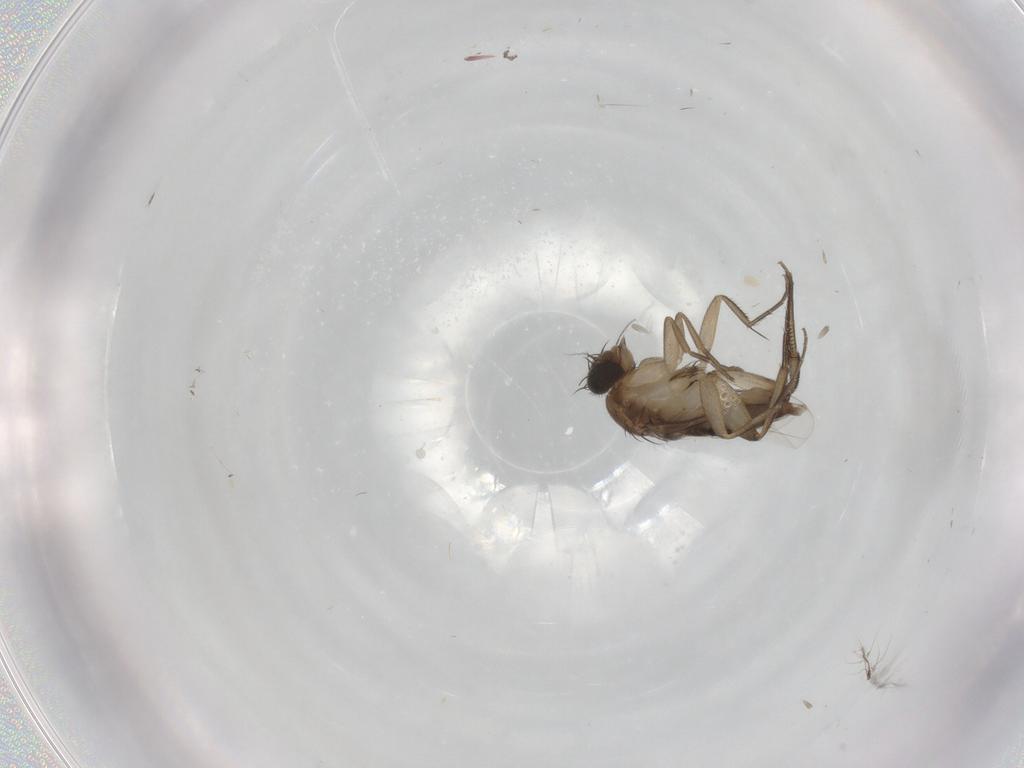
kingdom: Animalia
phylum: Arthropoda
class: Insecta
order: Diptera
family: Cecidomyiidae
